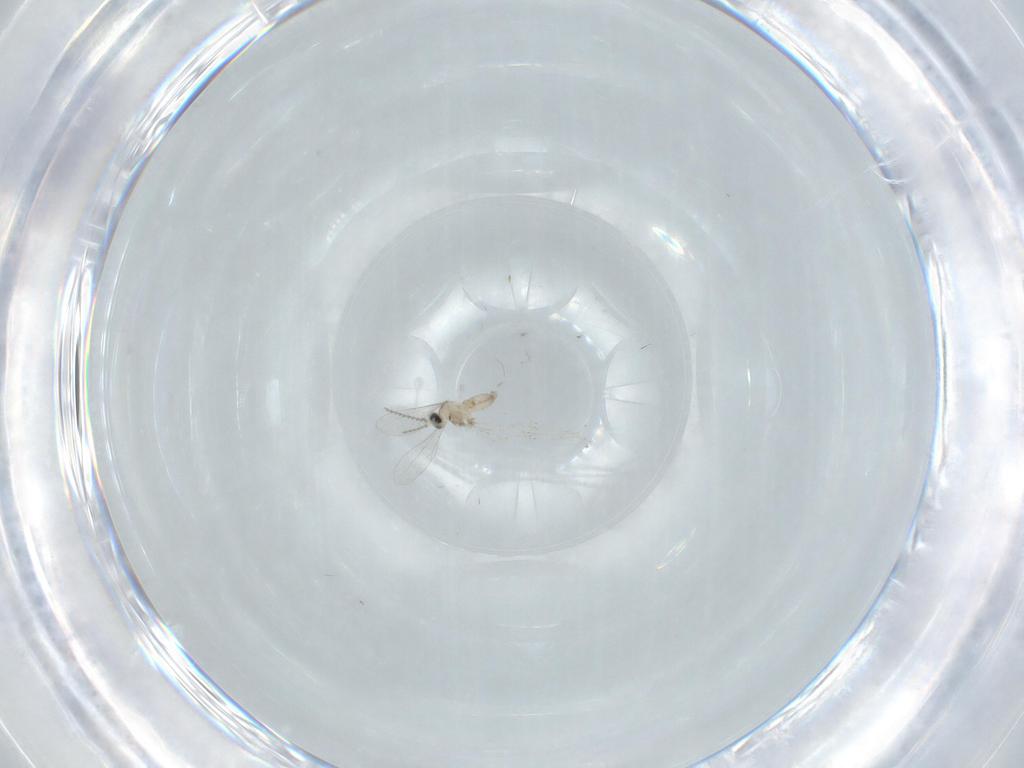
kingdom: Animalia
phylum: Arthropoda
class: Insecta
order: Diptera
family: Cecidomyiidae
